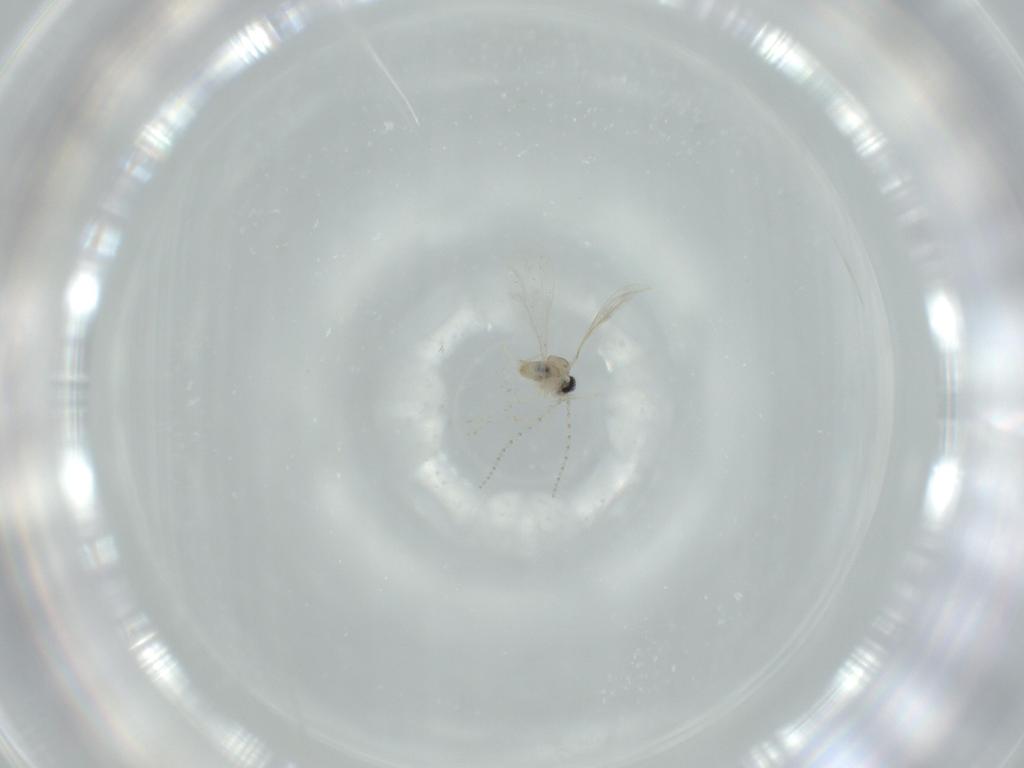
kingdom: Animalia
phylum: Arthropoda
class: Insecta
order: Diptera
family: Cecidomyiidae
